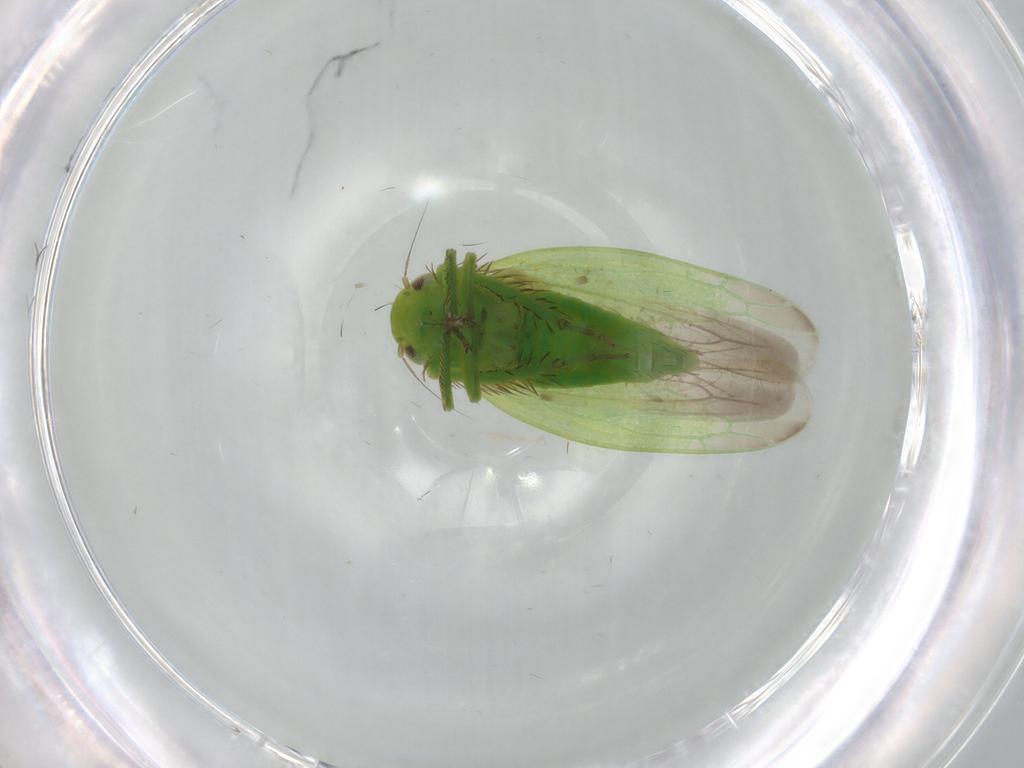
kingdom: Animalia
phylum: Arthropoda
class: Insecta
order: Hemiptera
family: Cicadellidae
